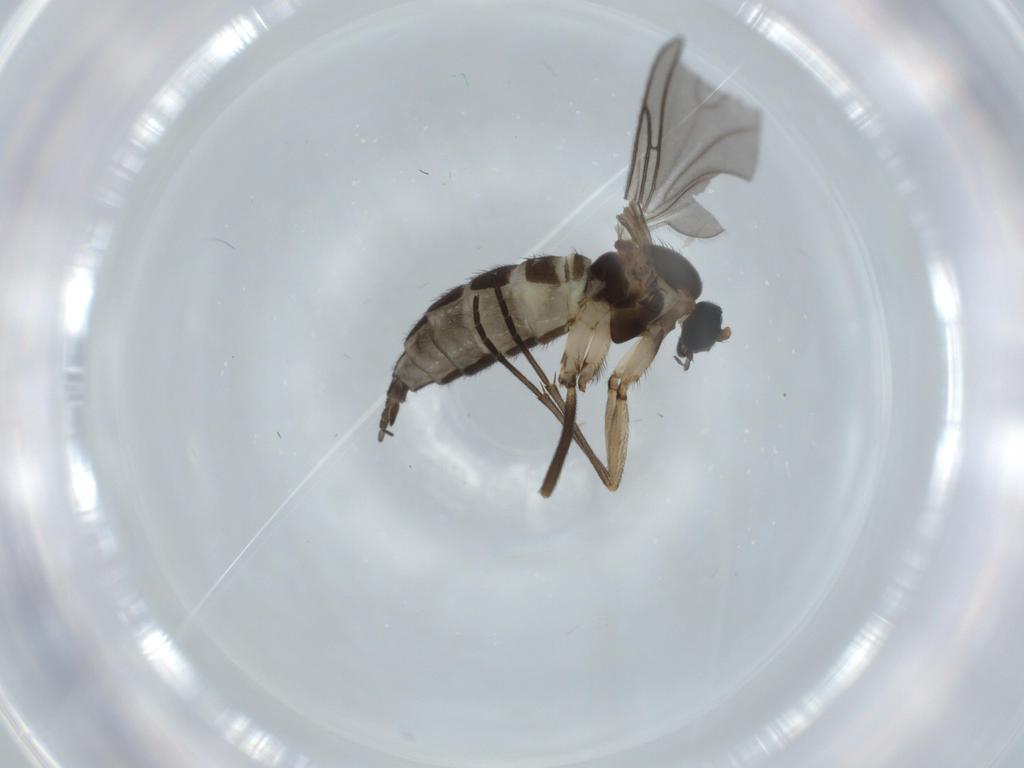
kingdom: Animalia
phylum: Arthropoda
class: Insecta
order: Diptera
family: Sciaridae
